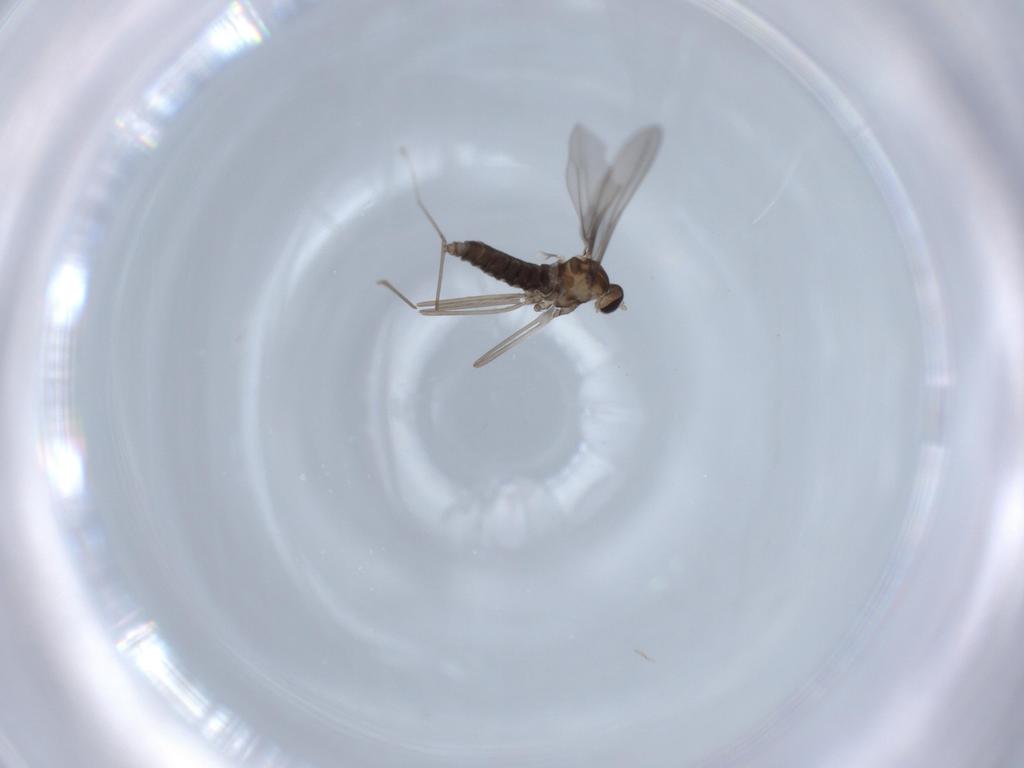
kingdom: Animalia
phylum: Arthropoda
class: Insecta
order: Diptera
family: Cecidomyiidae
